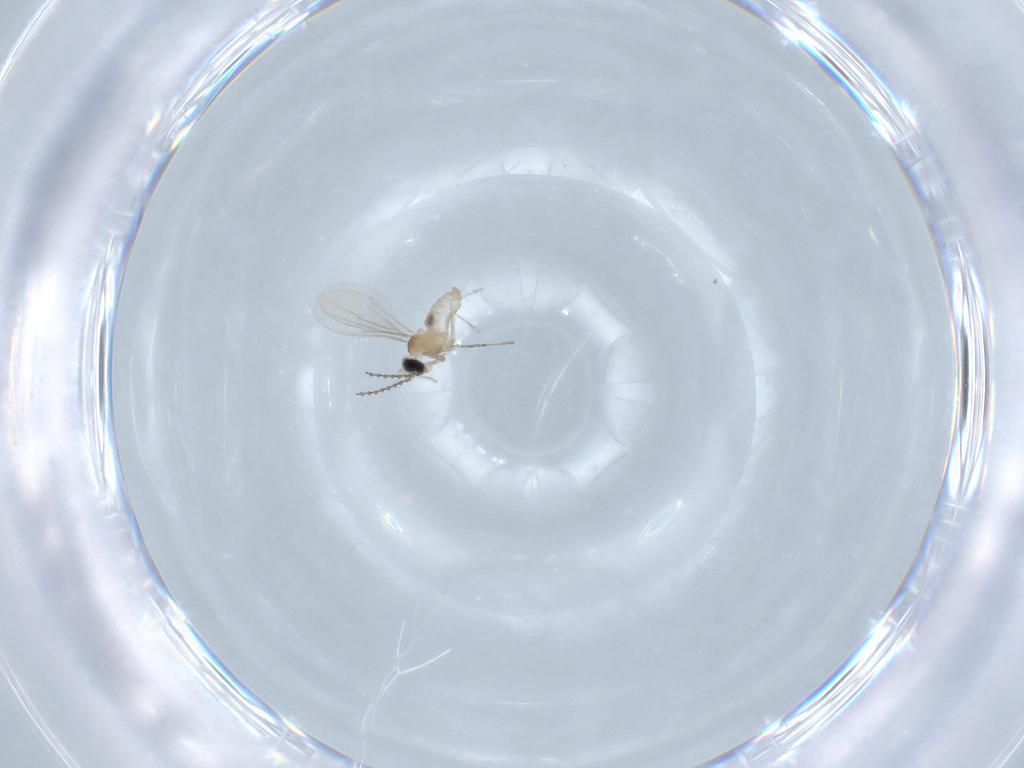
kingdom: Animalia
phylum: Arthropoda
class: Insecta
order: Diptera
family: Cecidomyiidae
